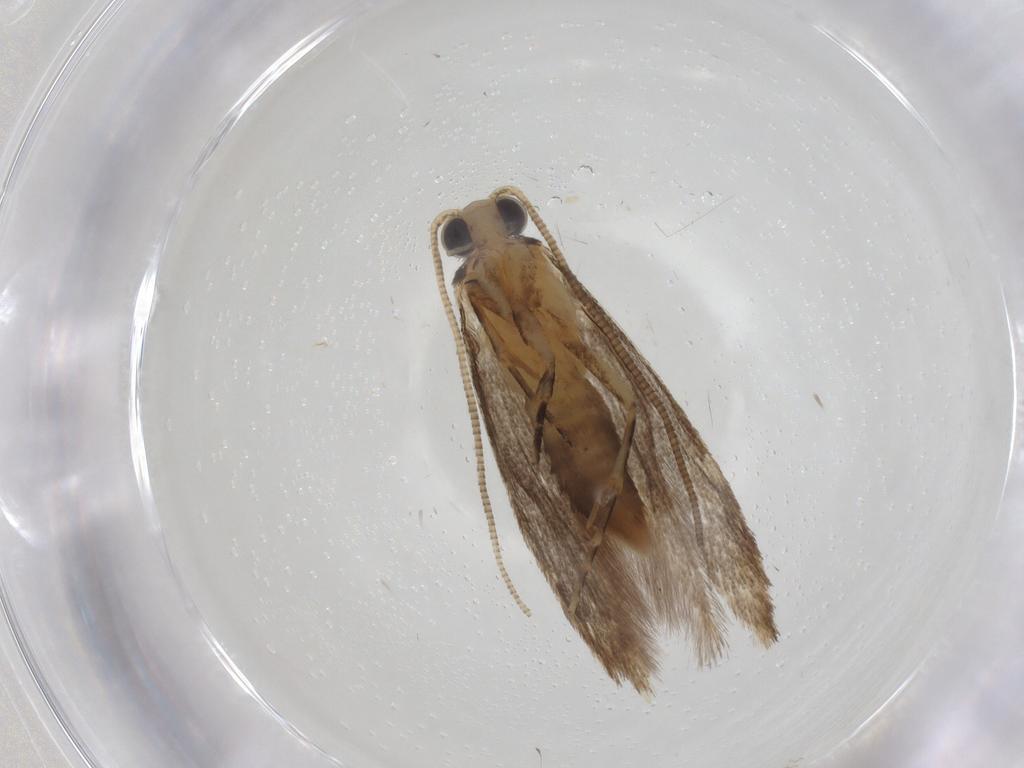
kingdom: Animalia
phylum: Arthropoda
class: Insecta
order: Lepidoptera
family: Tineidae
